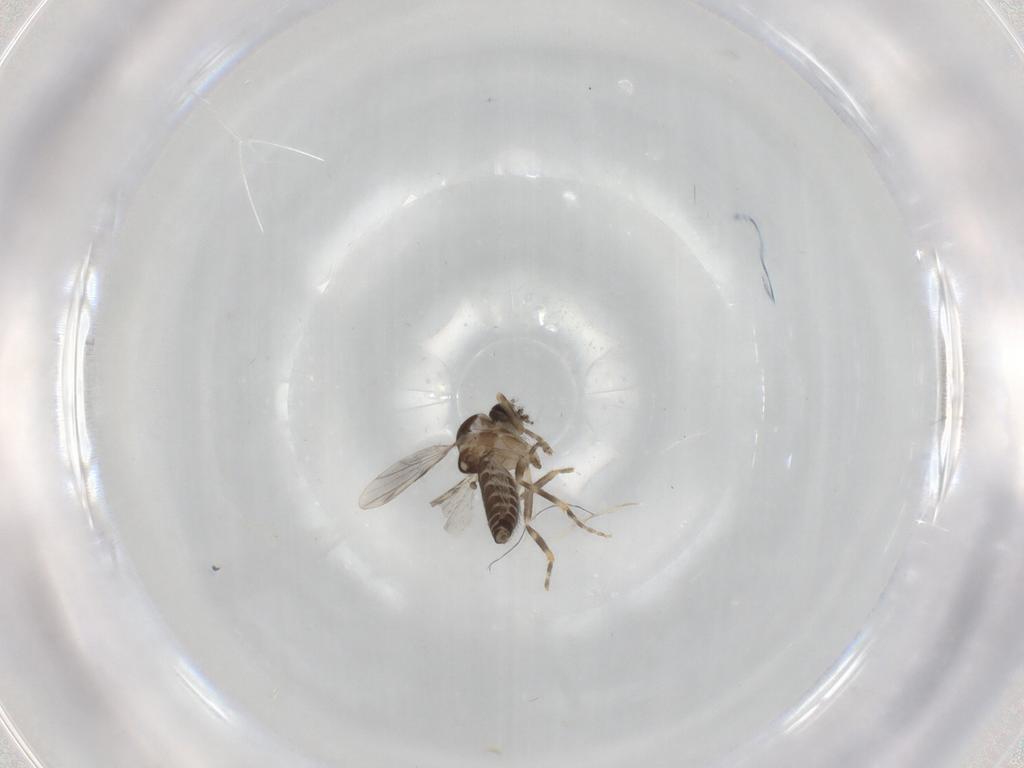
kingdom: Animalia
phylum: Arthropoda
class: Insecta
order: Diptera
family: Ceratopogonidae
